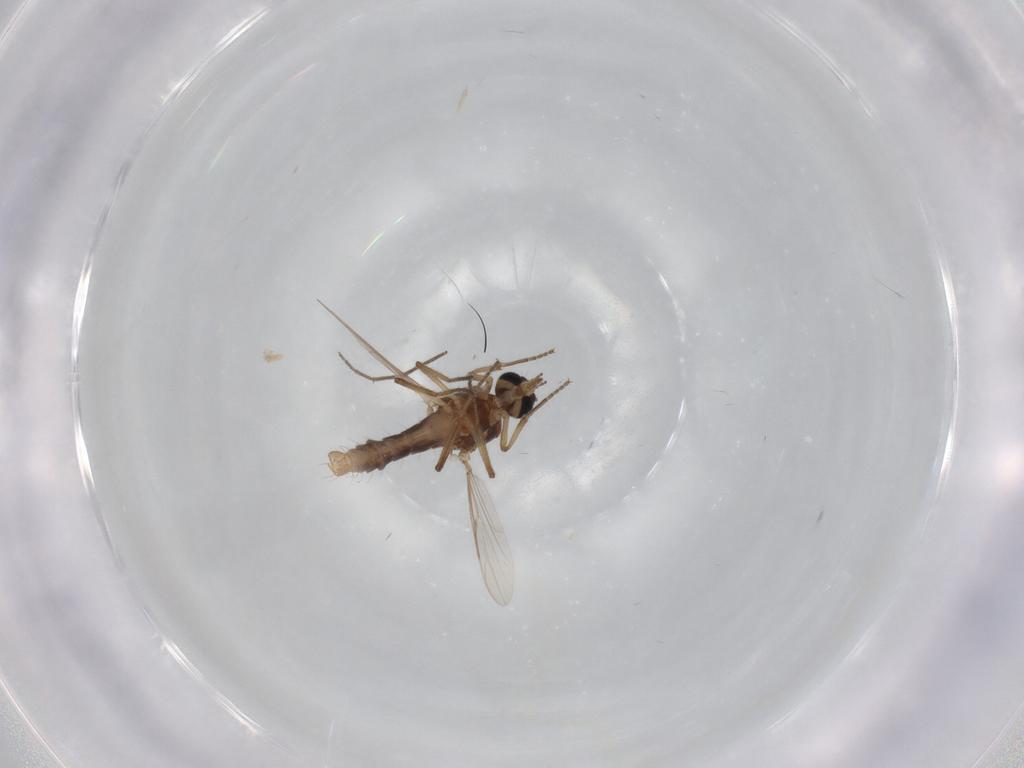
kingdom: Animalia
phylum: Arthropoda
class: Insecta
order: Diptera
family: Ceratopogonidae
